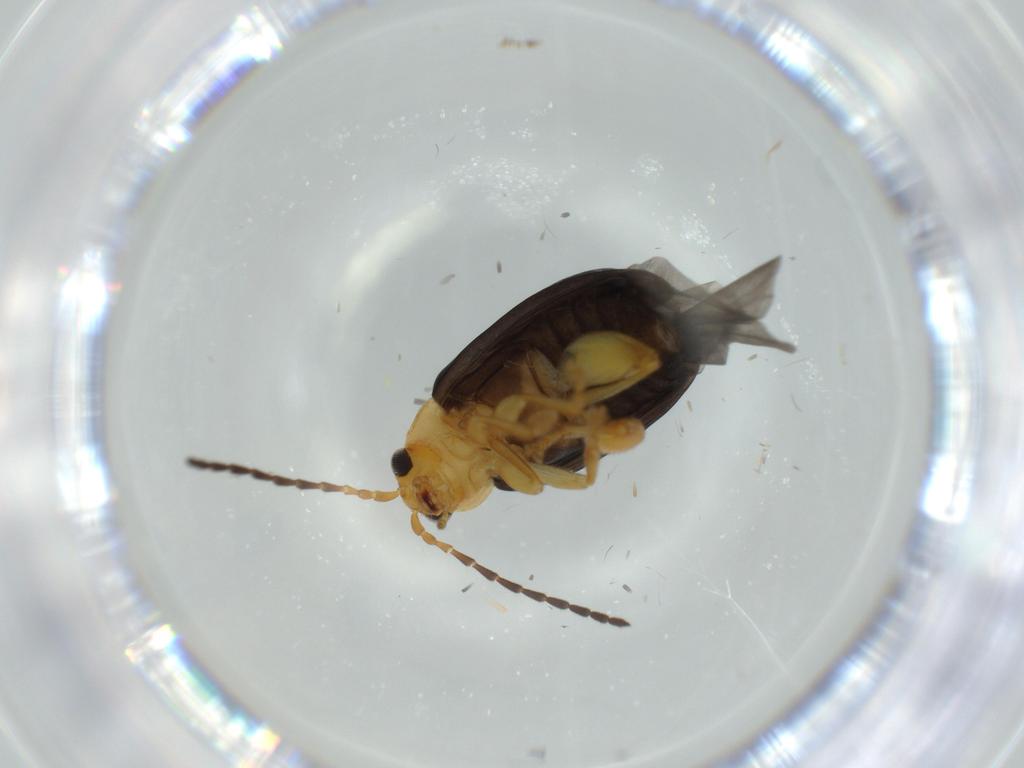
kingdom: Animalia
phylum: Arthropoda
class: Insecta
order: Coleoptera
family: Chrysomelidae
